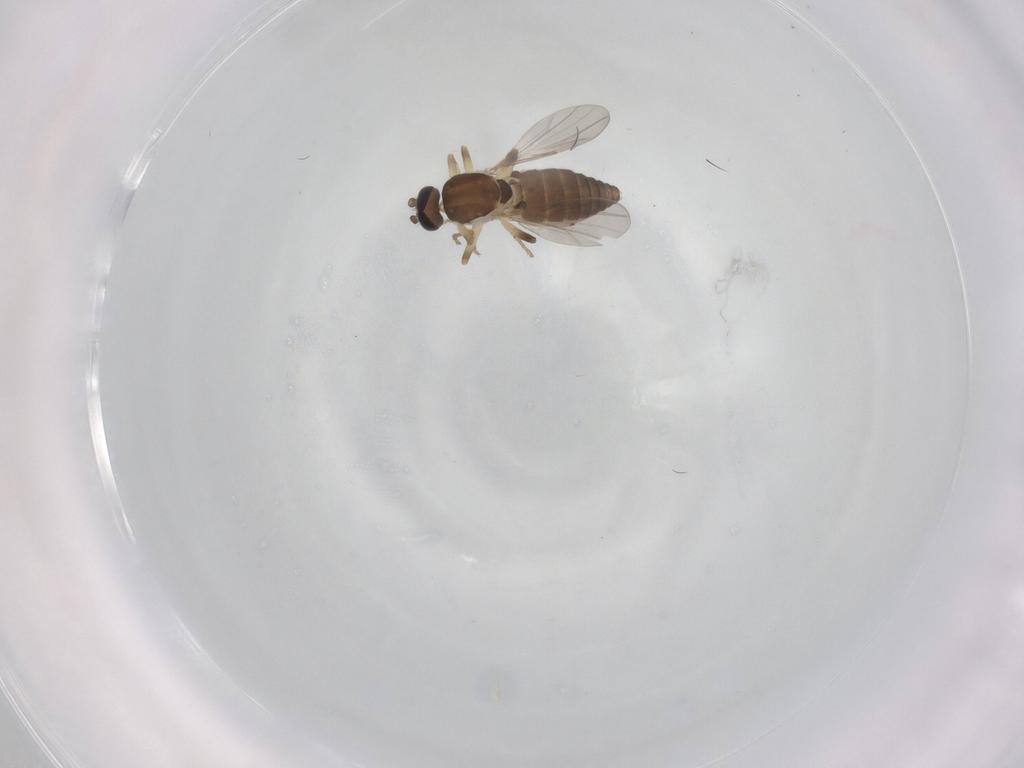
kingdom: Animalia
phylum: Arthropoda
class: Insecta
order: Diptera
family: Ceratopogonidae
